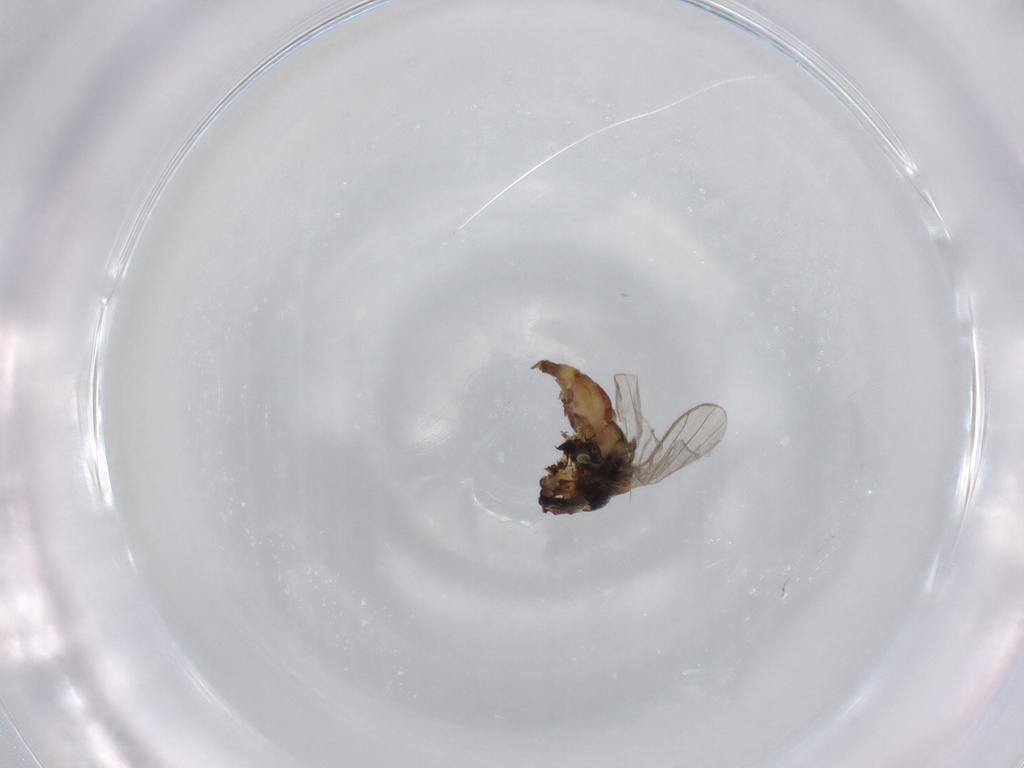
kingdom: Animalia
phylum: Arthropoda
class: Insecta
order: Diptera
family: Chloropidae
